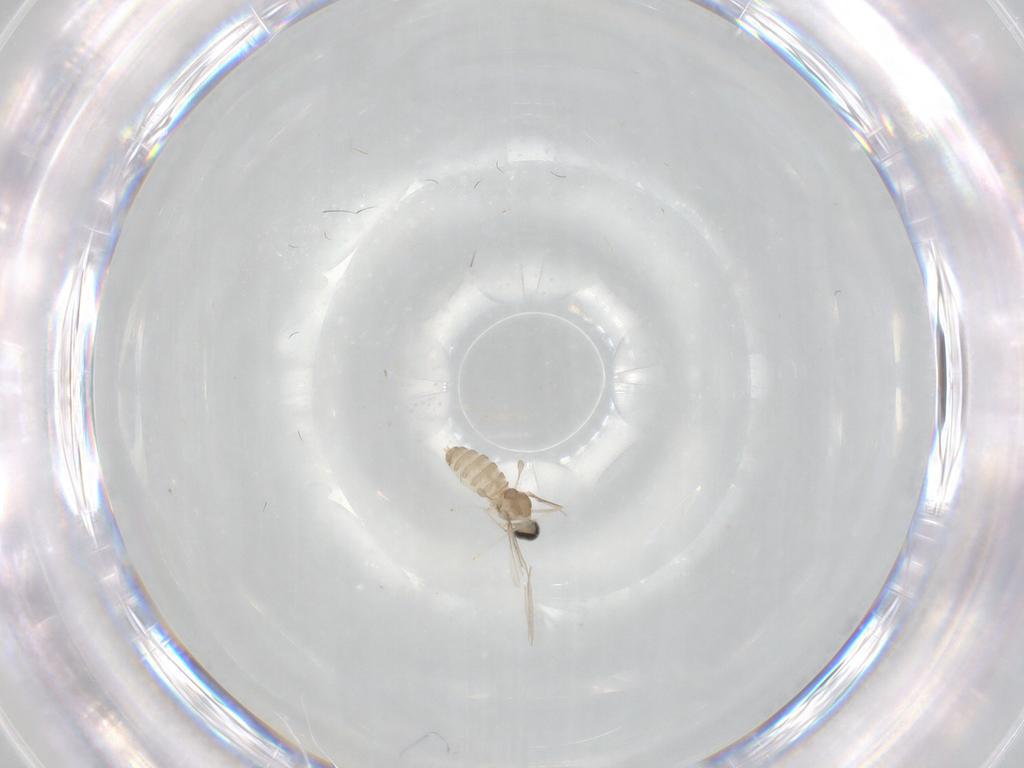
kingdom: Animalia
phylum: Arthropoda
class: Insecta
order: Diptera
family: Cecidomyiidae
